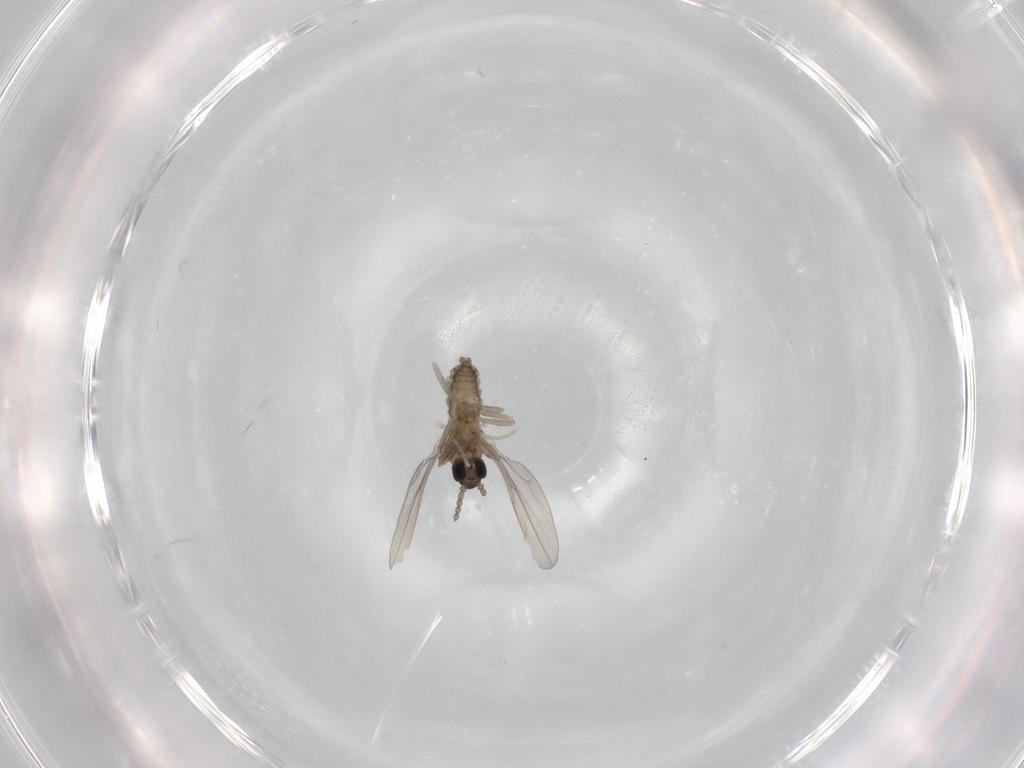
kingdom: Animalia
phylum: Arthropoda
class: Insecta
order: Diptera
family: Cecidomyiidae
